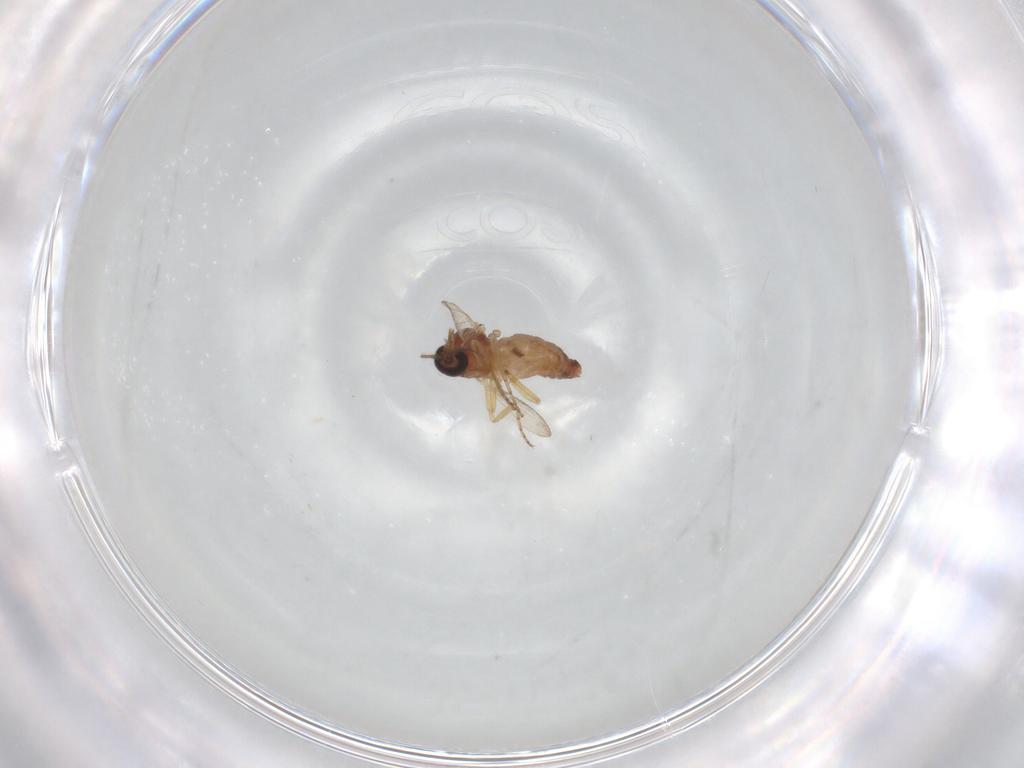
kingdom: Animalia
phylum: Arthropoda
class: Insecta
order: Diptera
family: Ceratopogonidae
